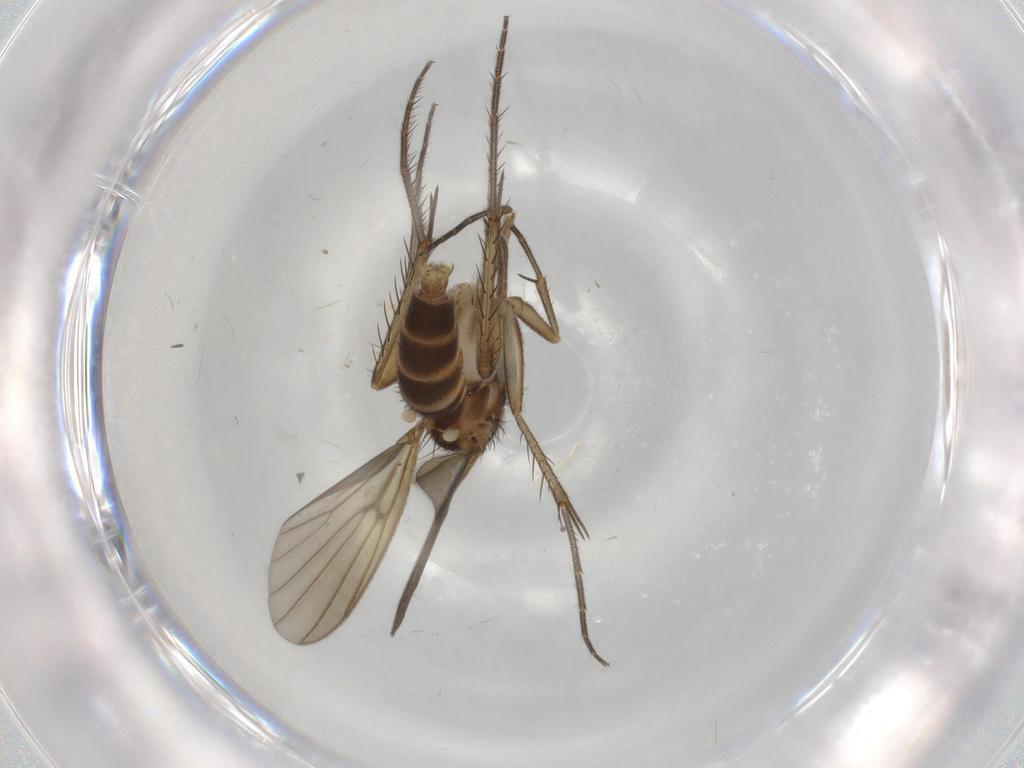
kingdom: Animalia
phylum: Arthropoda
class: Insecta
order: Diptera
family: Mycetophilidae
